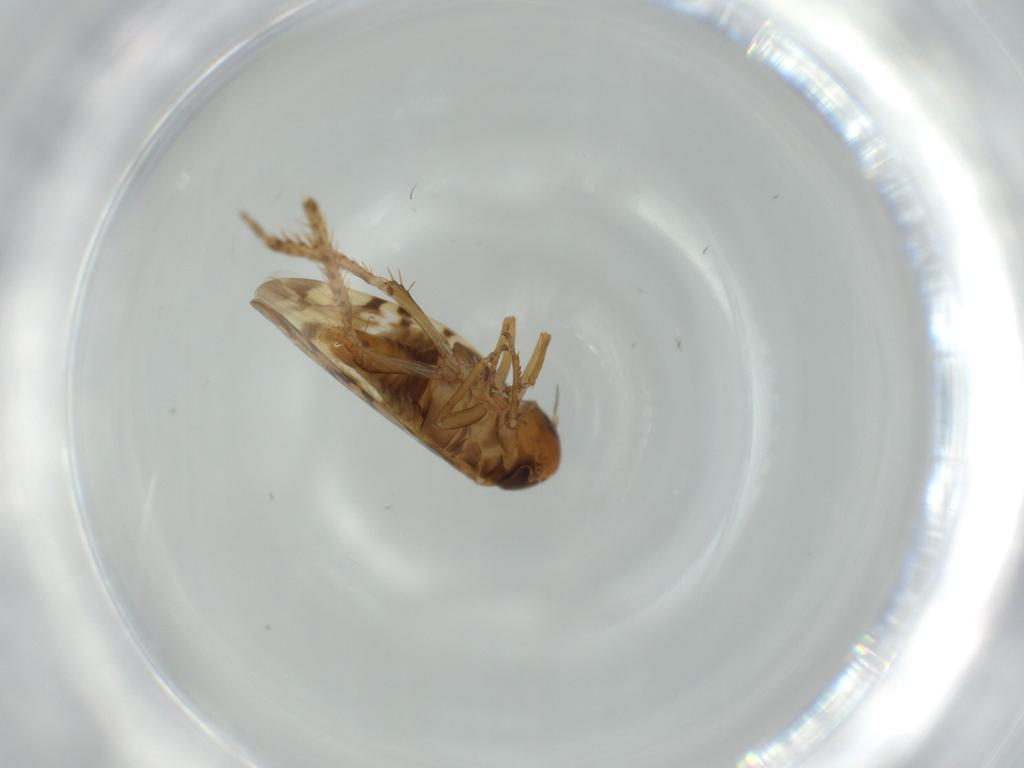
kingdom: Animalia
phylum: Arthropoda
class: Insecta
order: Hemiptera
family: Cicadellidae
